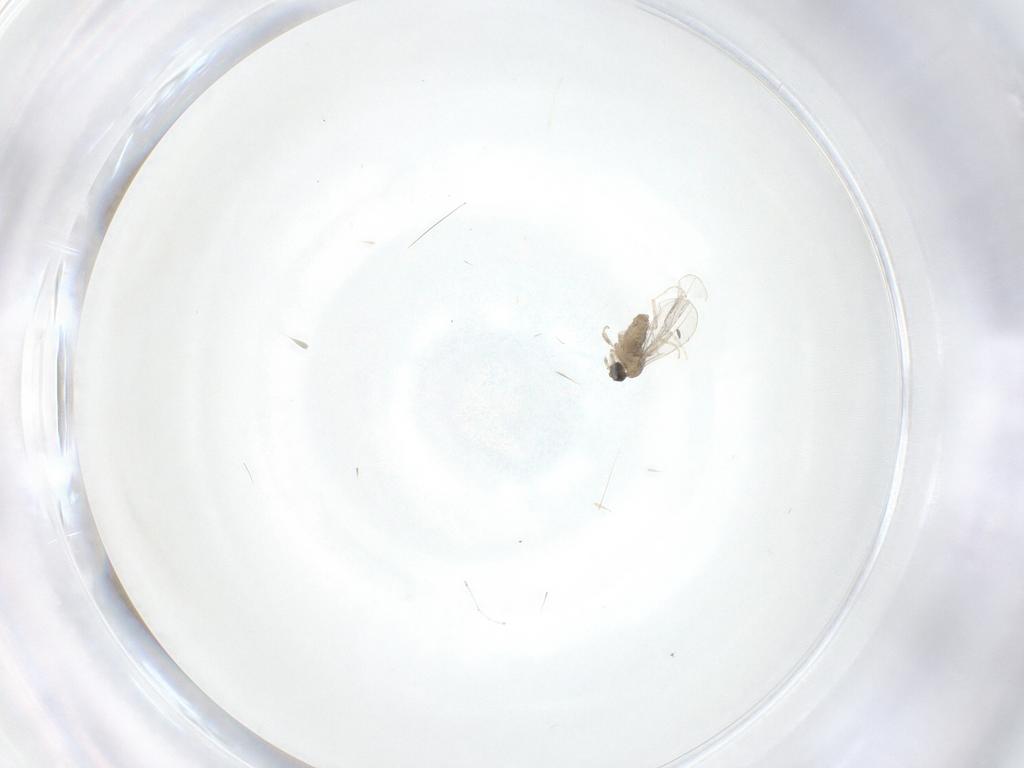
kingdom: Animalia
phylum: Arthropoda
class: Insecta
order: Diptera
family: Cecidomyiidae
